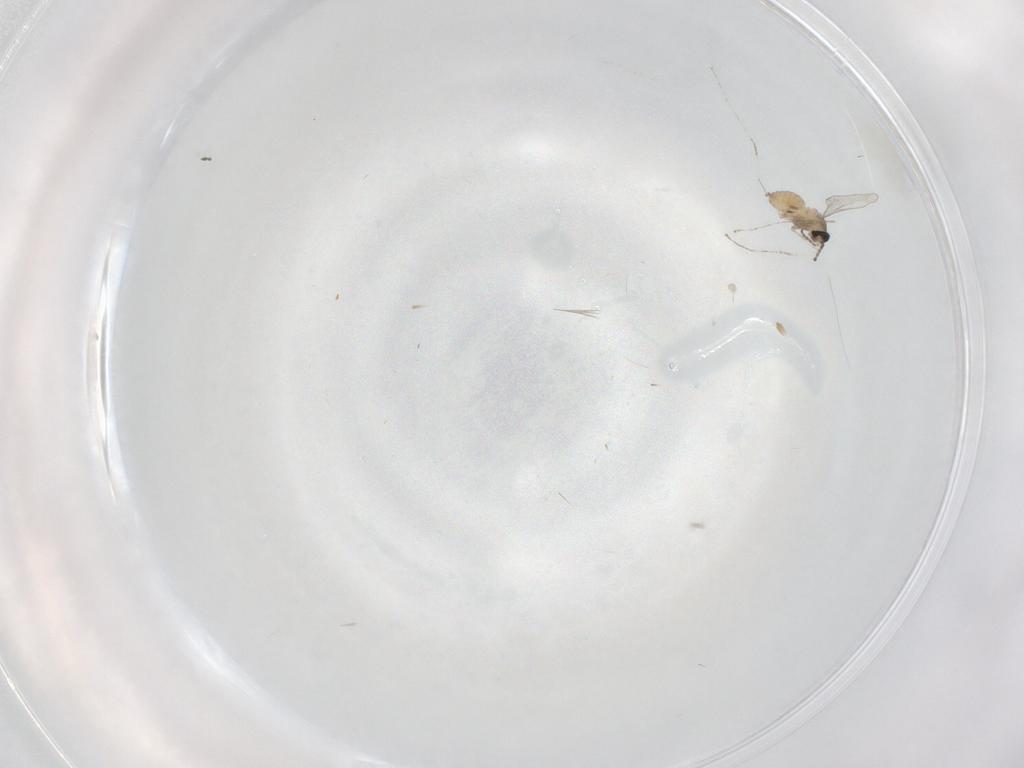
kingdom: Animalia
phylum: Arthropoda
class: Insecta
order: Diptera
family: Cecidomyiidae
